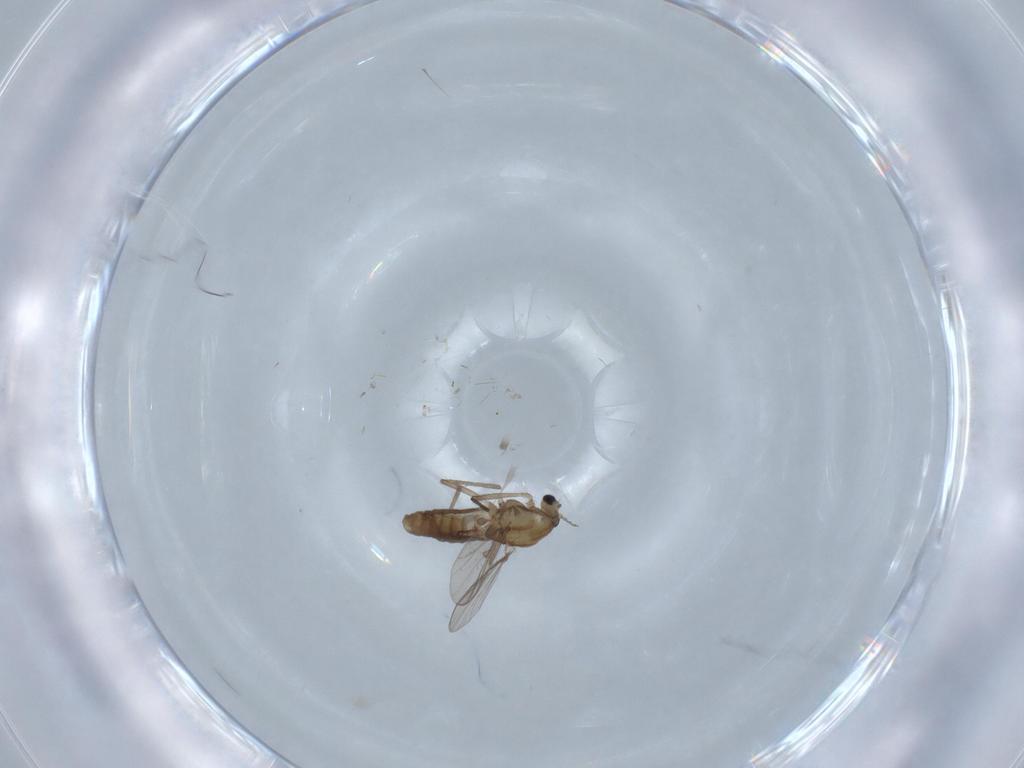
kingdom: Animalia
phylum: Arthropoda
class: Insecta
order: Diptera
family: Chironomidae
